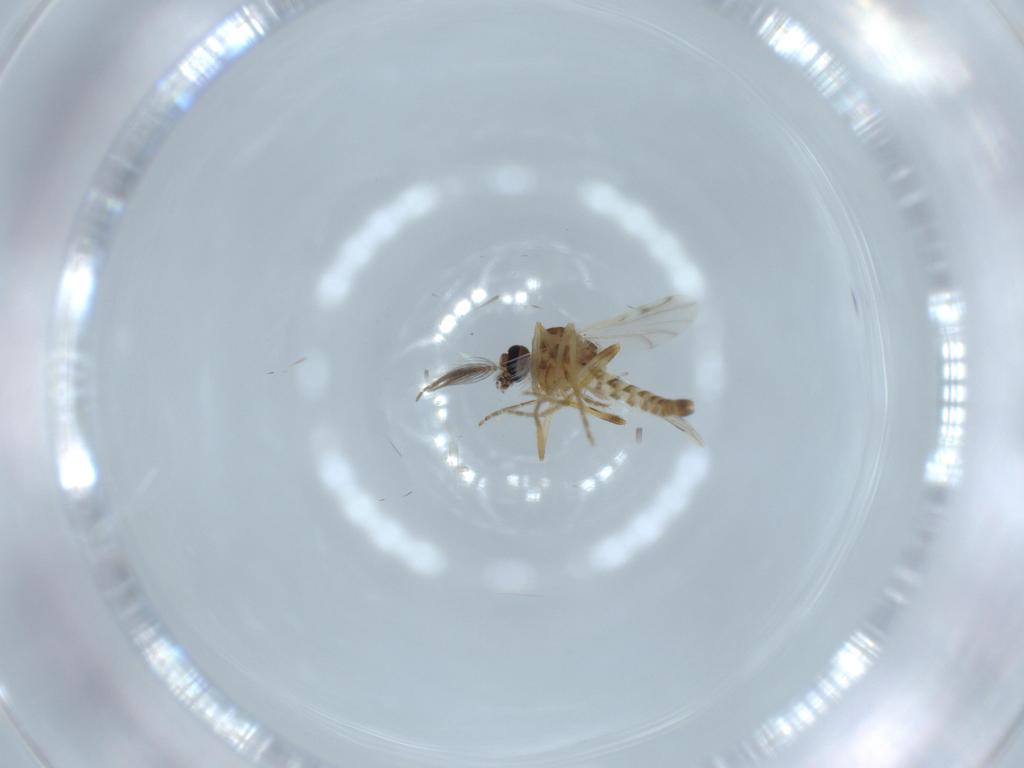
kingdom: Animalia
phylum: Arthropoda
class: Insecta
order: Diptera
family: Ceratopogonidae
